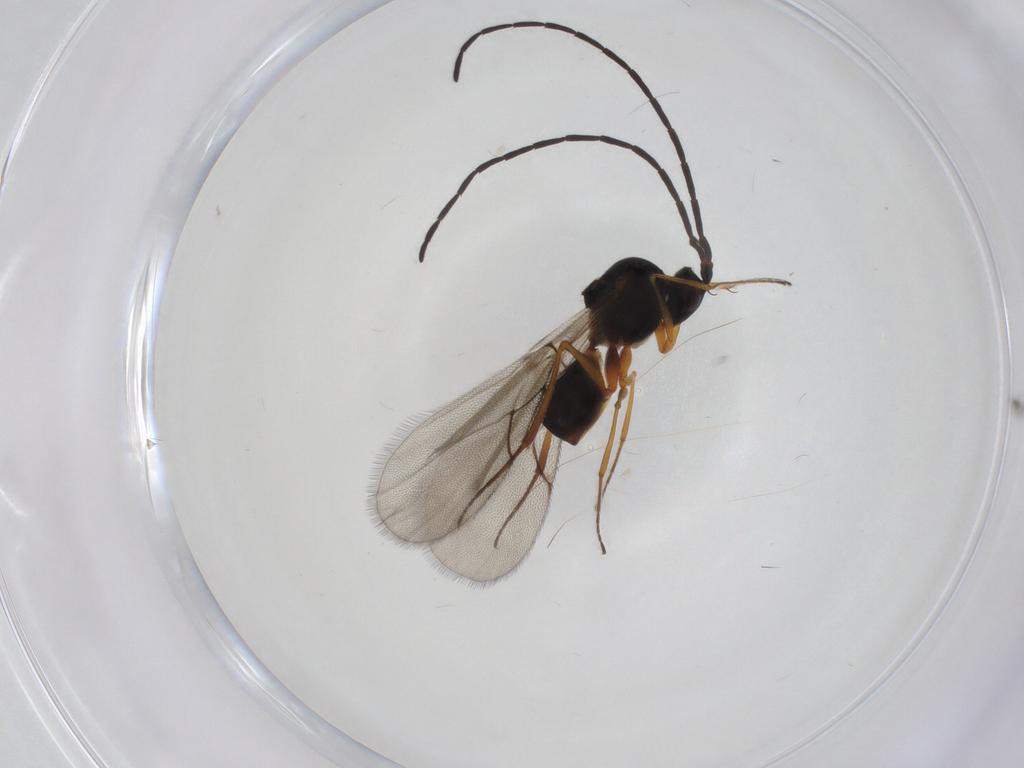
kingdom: Animalia
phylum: Arthropoda
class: Insecta
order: Hymenoptera
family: Figitidae
